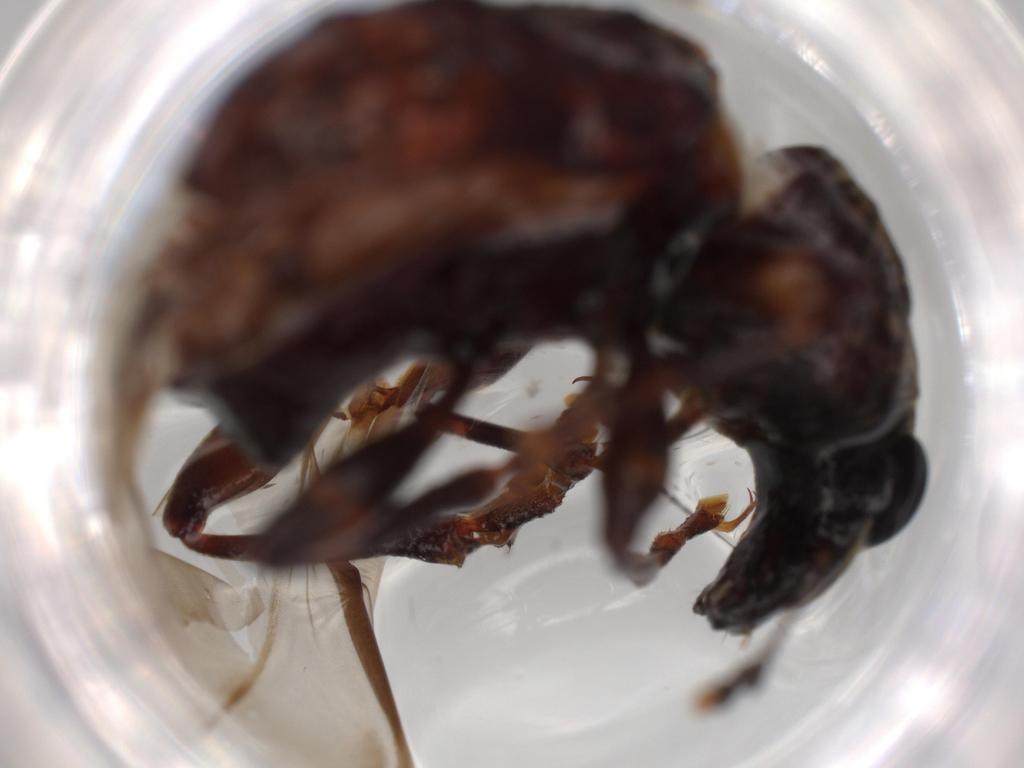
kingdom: Animalia
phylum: Arthropoda
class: Insecta
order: Coleoptera
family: Anthribidae
